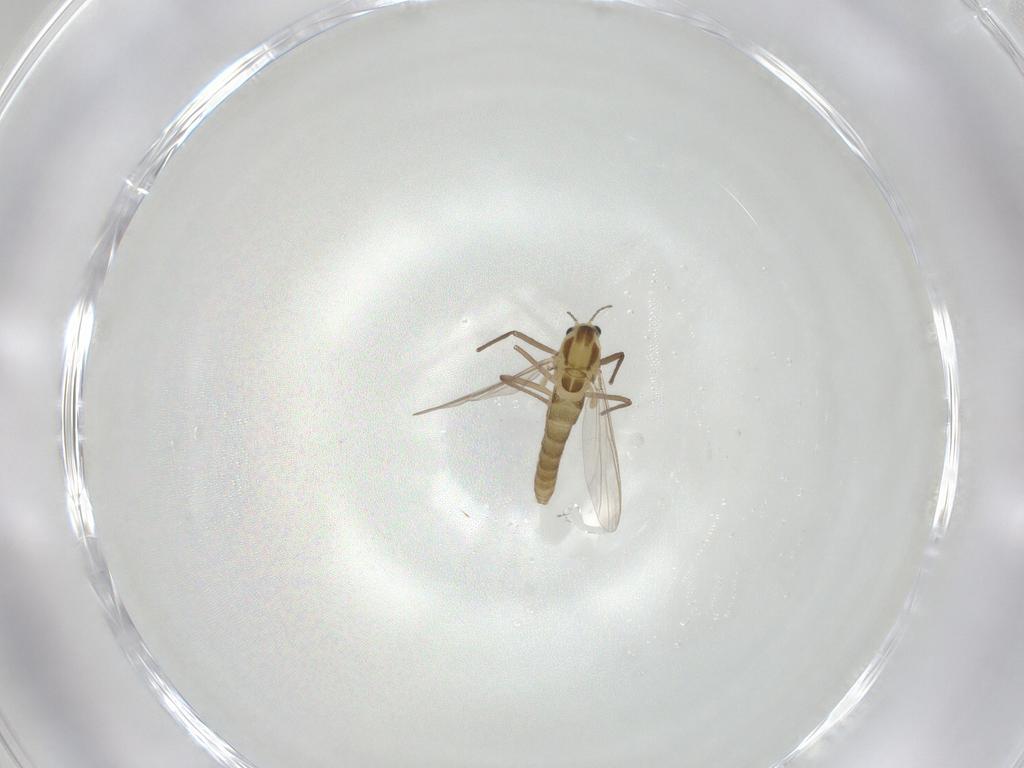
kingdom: Animalia
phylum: Arthropoda
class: Insecta
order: Diptera
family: Chironomidae
